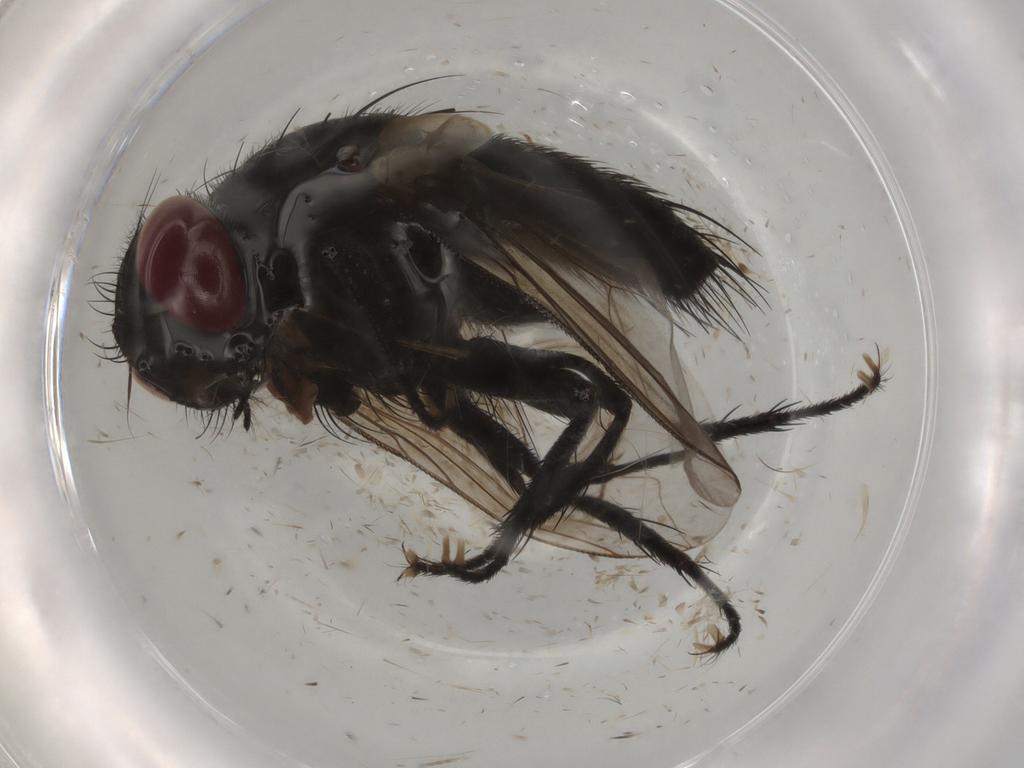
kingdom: Animalia
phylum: Arthropoda
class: Insecta
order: Diptera
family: Tachinidae
